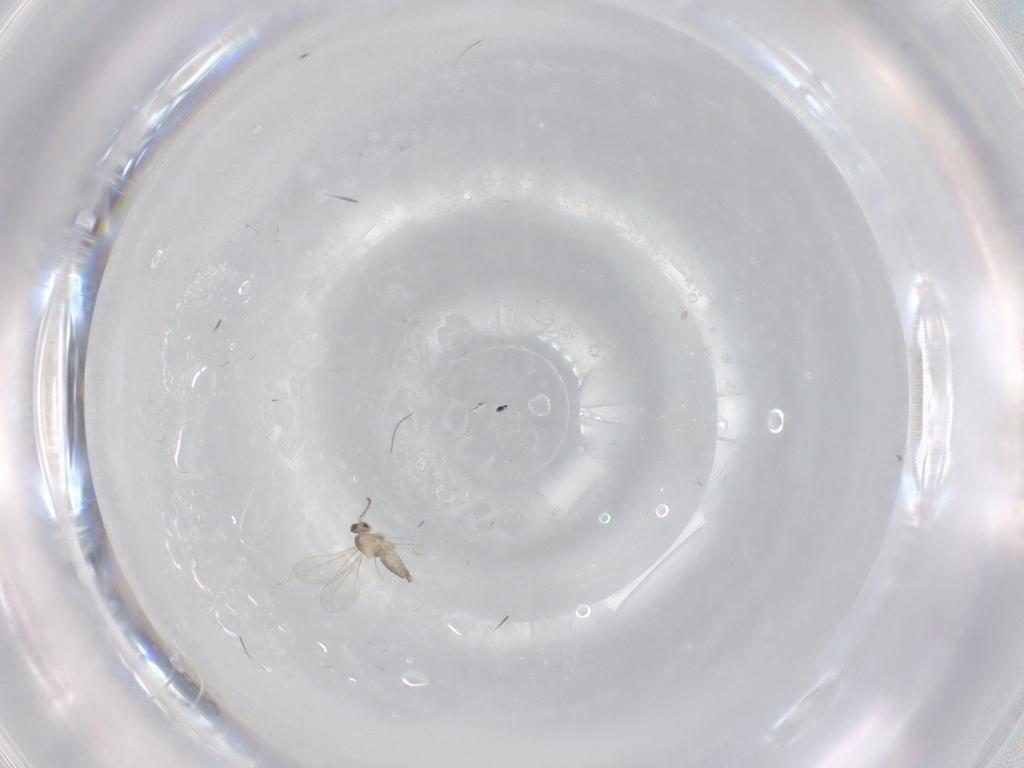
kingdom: Animalia
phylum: Arthropoda
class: Insecta
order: Diptera
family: Cecidomyiidae
